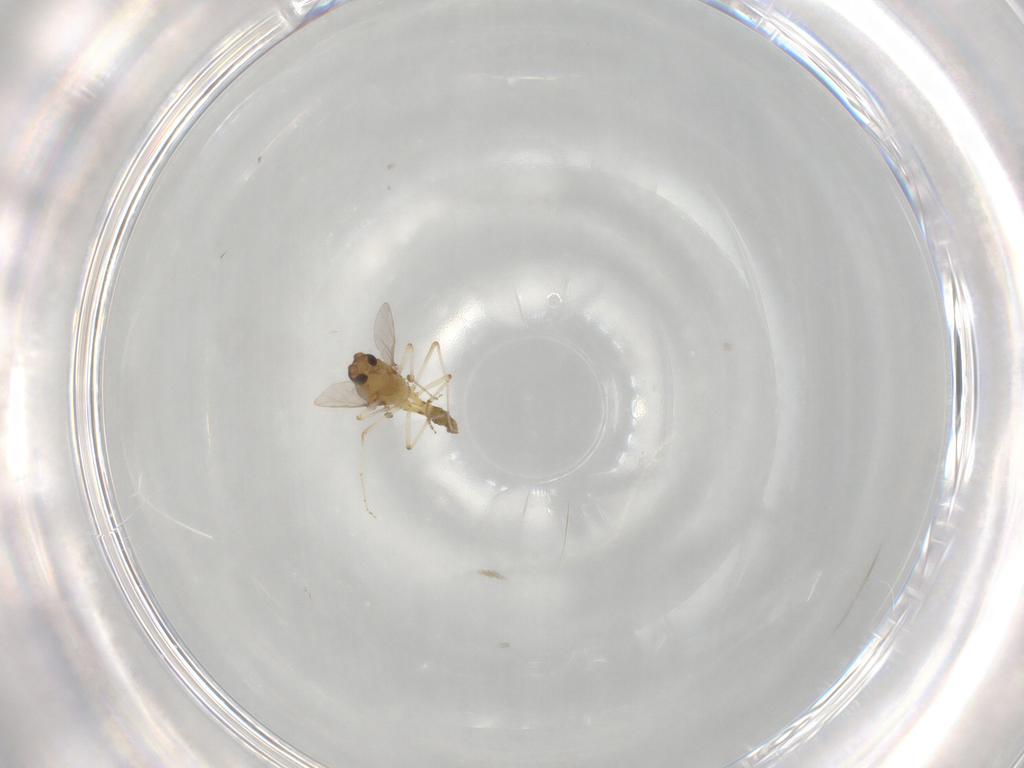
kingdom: Animalia
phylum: Arthropoda
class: Insecta
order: Diptera
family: Ceratopogonidae
